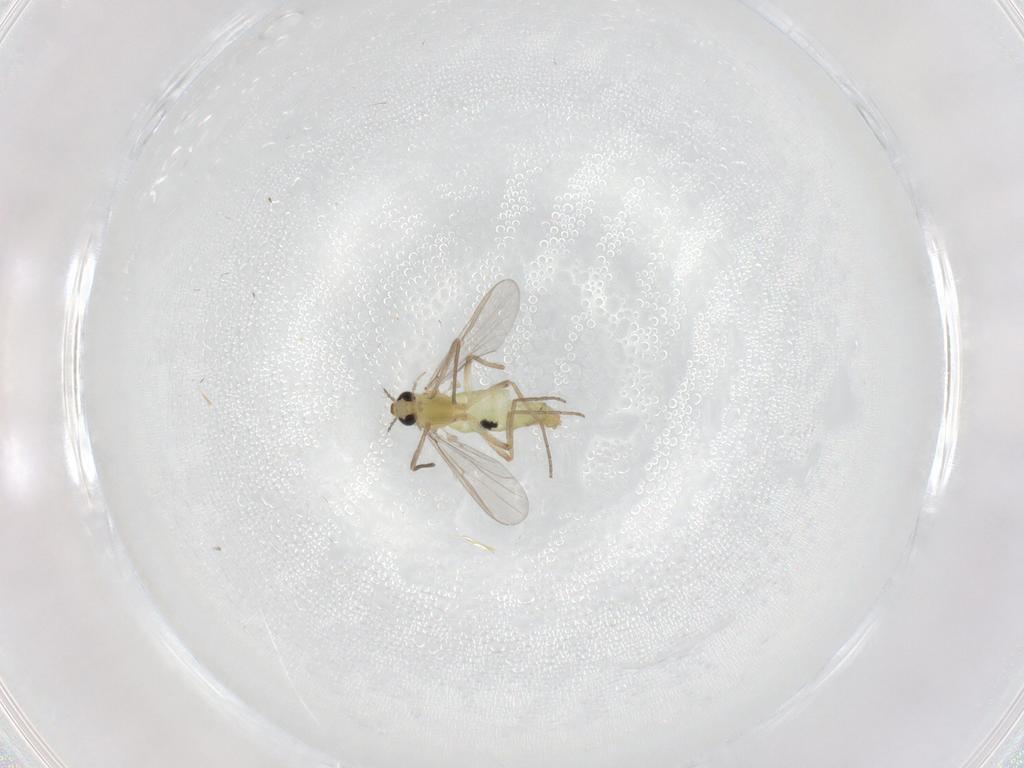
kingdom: Animalia
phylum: Arthropoda
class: Insecta
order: Diptera
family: Chironomidae
